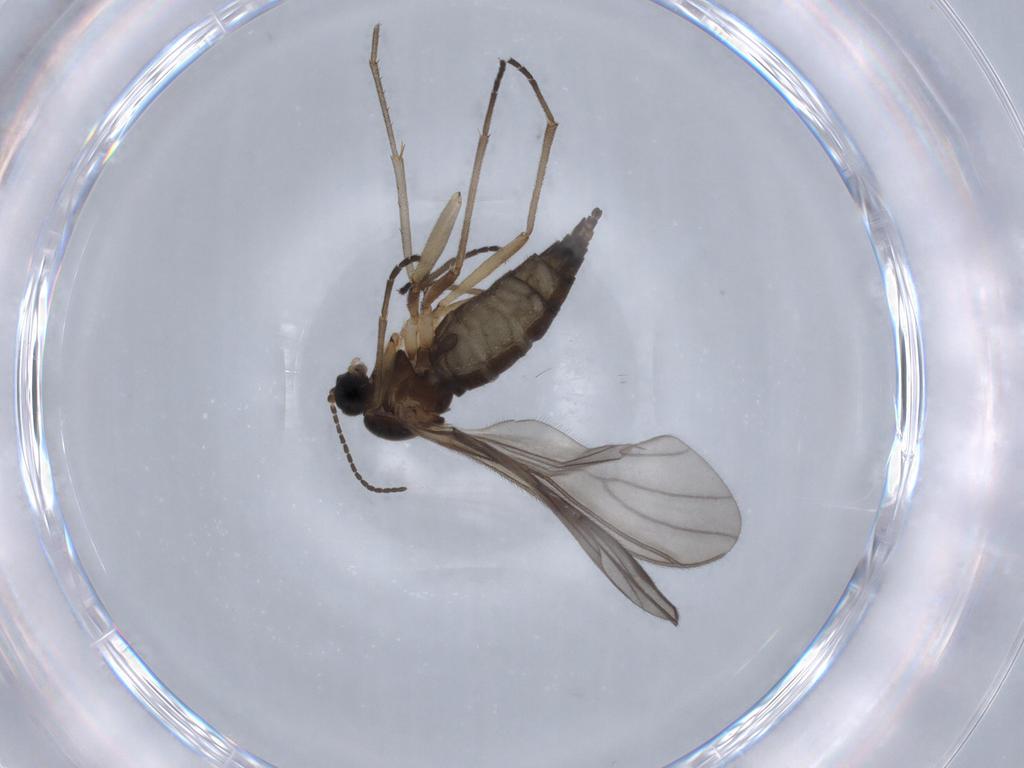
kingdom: Animalia
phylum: Arthropoda
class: Insecta
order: Diptera
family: Sciaridae
